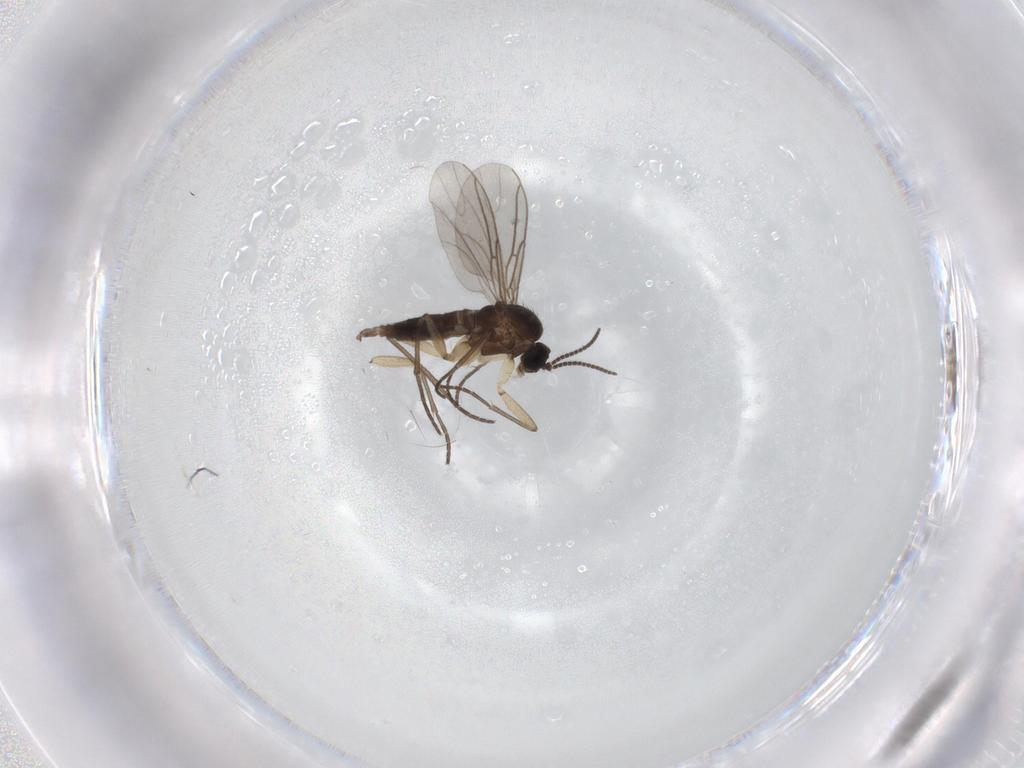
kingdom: Animalia
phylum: Arthropoda
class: Insecta
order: Diptera
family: Sciaridae
